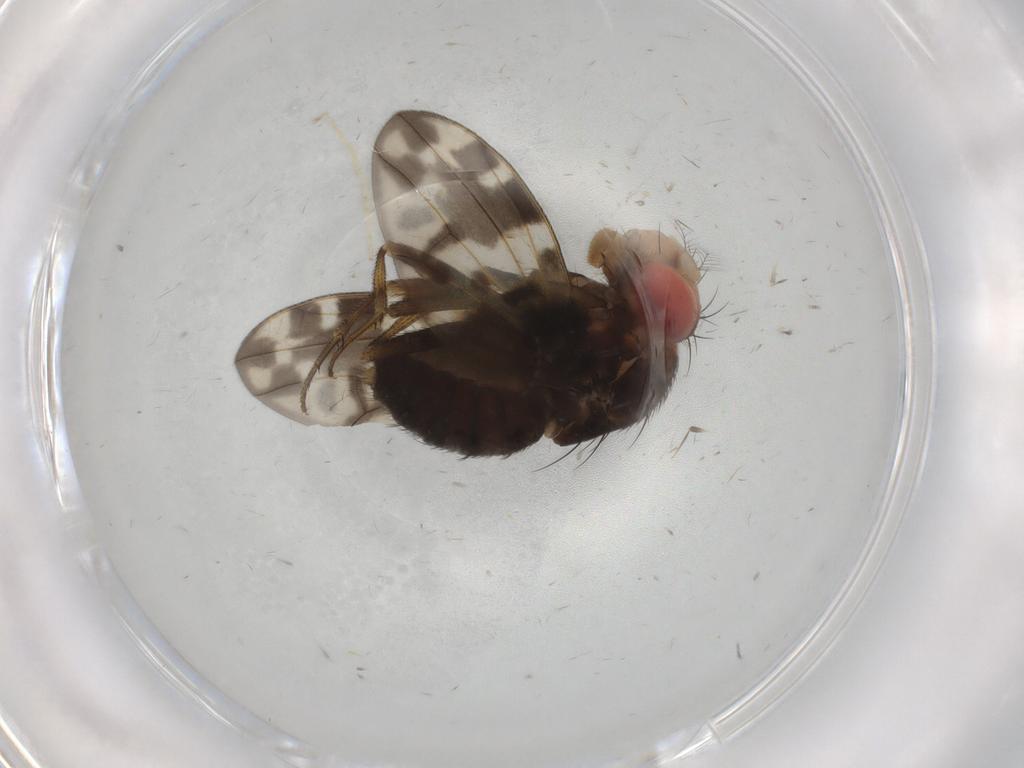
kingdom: Animalia
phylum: Arthropoda
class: Insecta
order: Diptera
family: Drosophilidae
